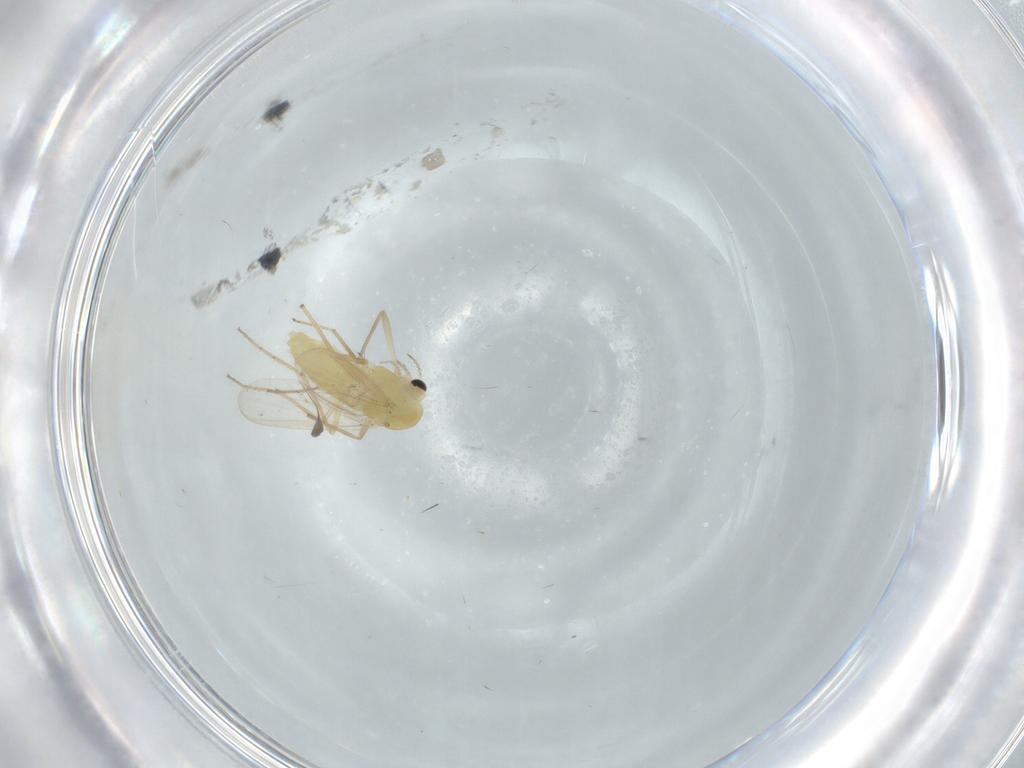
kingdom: Animalia
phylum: Arthropoda
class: Insecta
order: Diptera
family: Chironomidae
